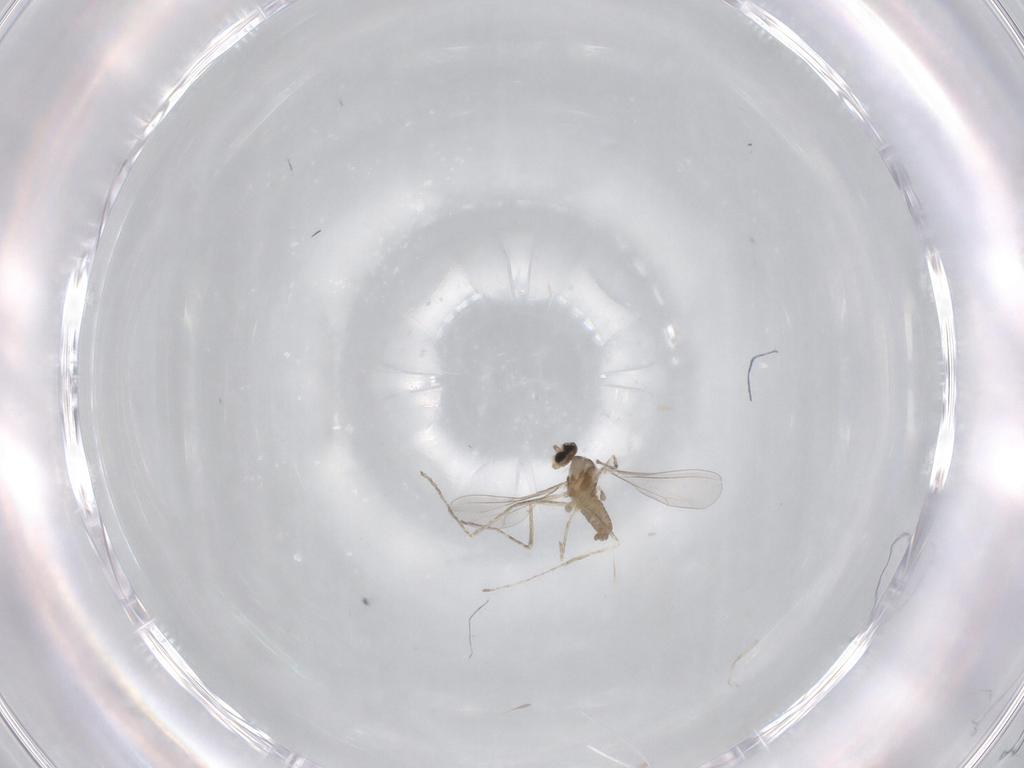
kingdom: Animalia
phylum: Arthropoda
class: Insecta
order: Diptera
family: Cecidomyiidae
